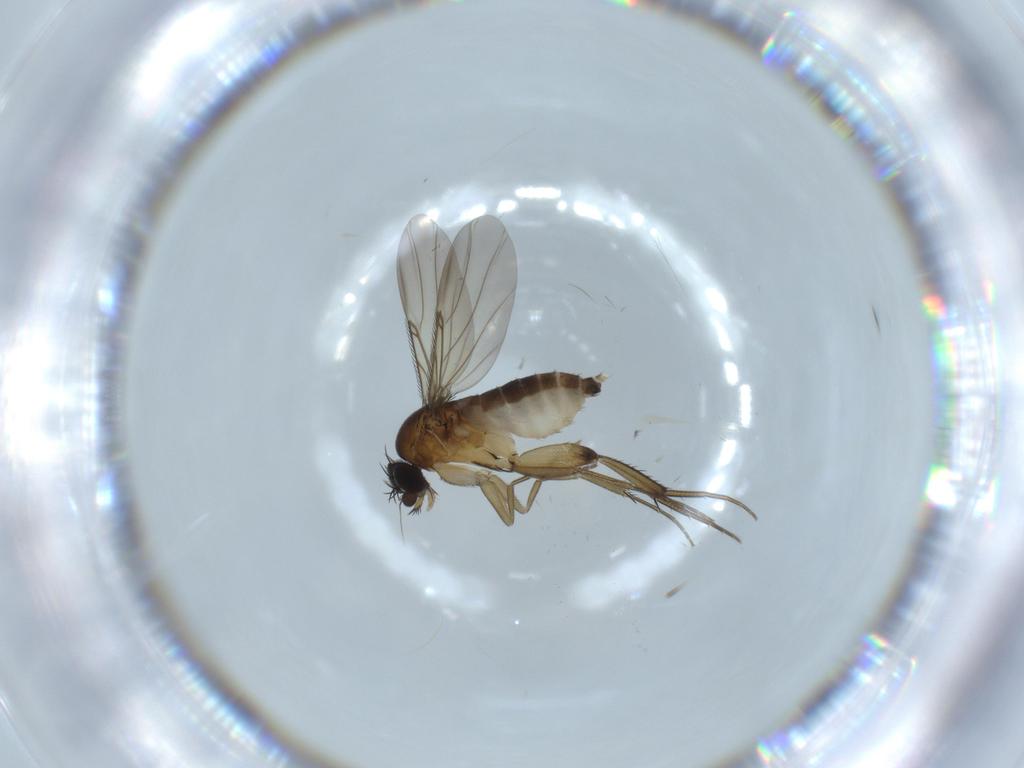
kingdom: Animalia
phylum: Arthropoda
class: Insecta
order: Diptera
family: Phoridae
